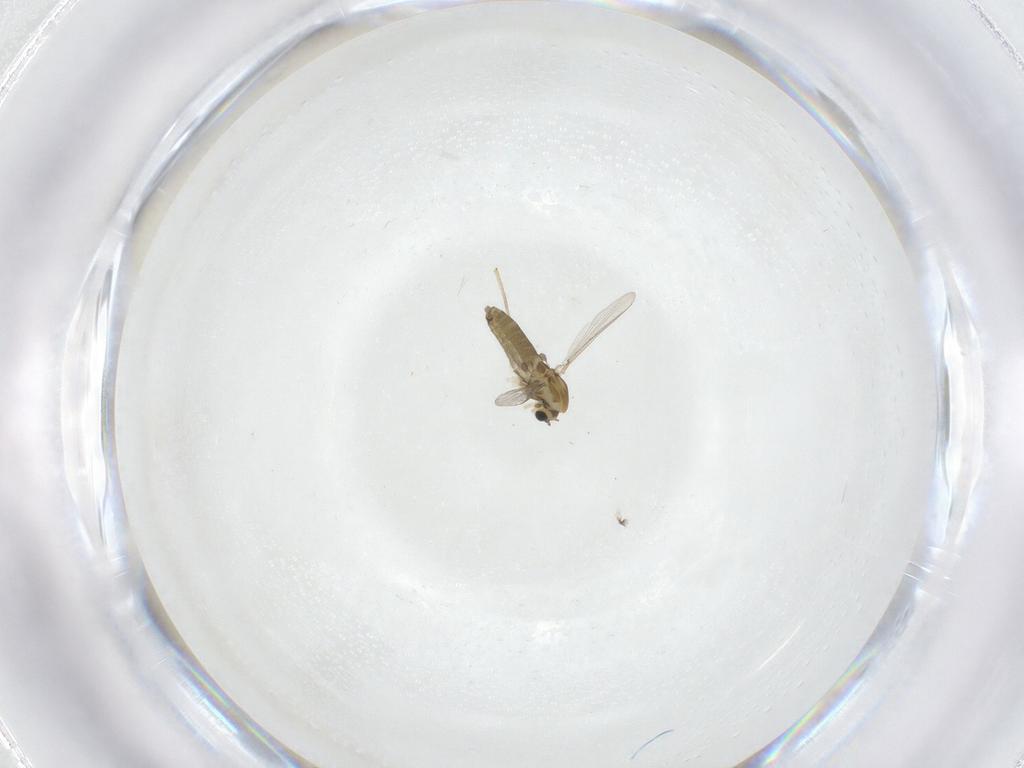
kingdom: Animalia
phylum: Arthropoda
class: Insecta
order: Diptera
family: Chironomidae
